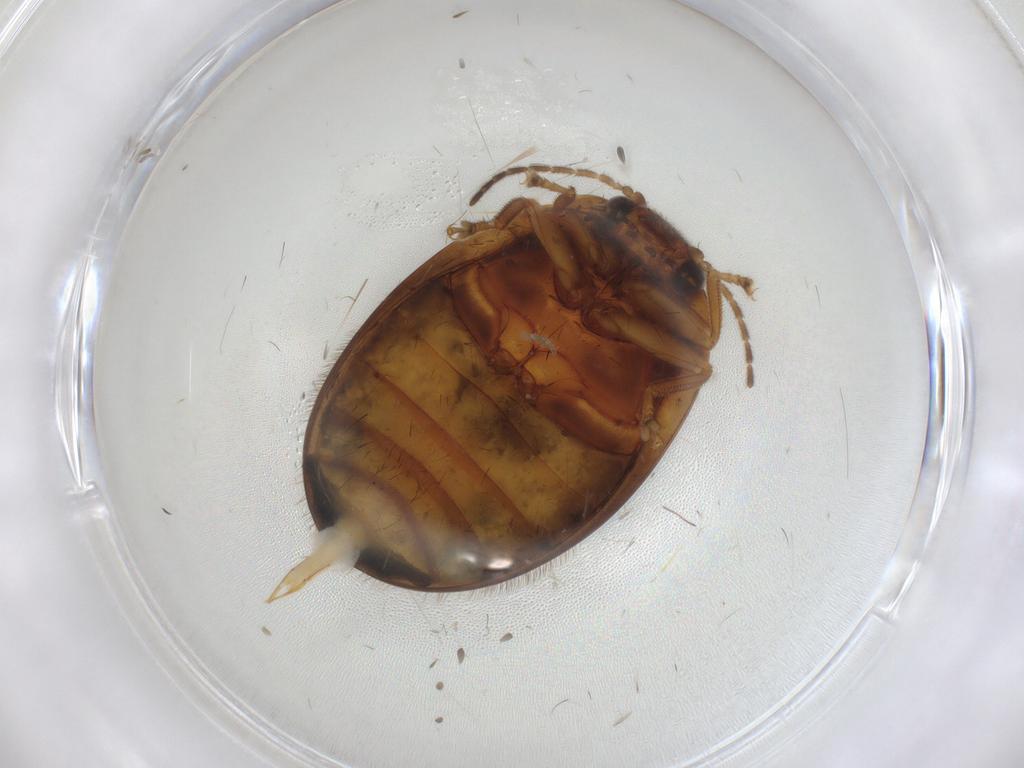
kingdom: Animalia
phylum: Arthropoda
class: Insecta
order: Coleoptera
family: Scirtidae
